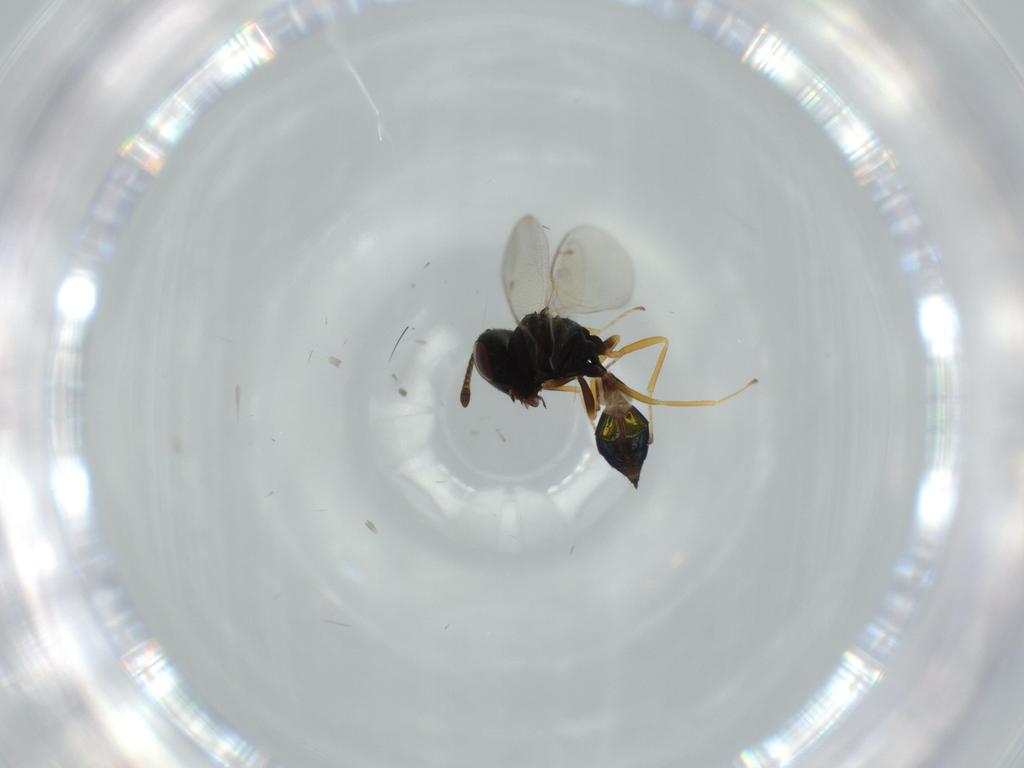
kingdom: Animalia
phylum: Arthropoda
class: Insecta
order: Hymenoptera
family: Pteromalidae
